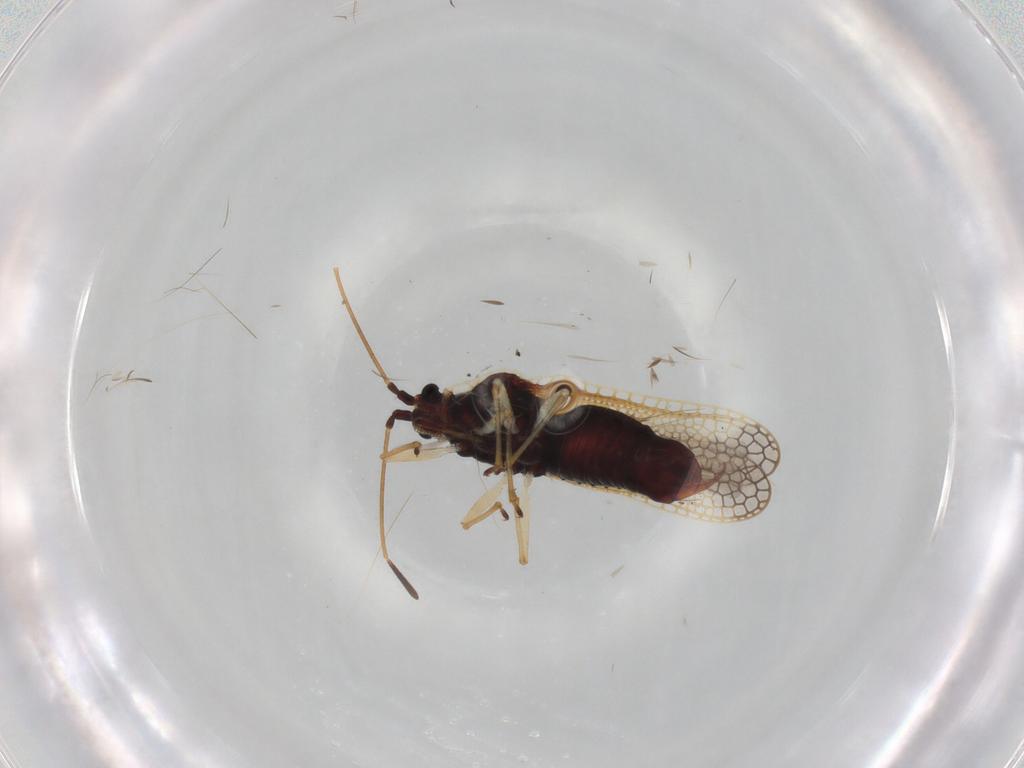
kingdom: Animalia
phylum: Arthropoda
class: Insecta
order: Hemiptera
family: Tingidae
